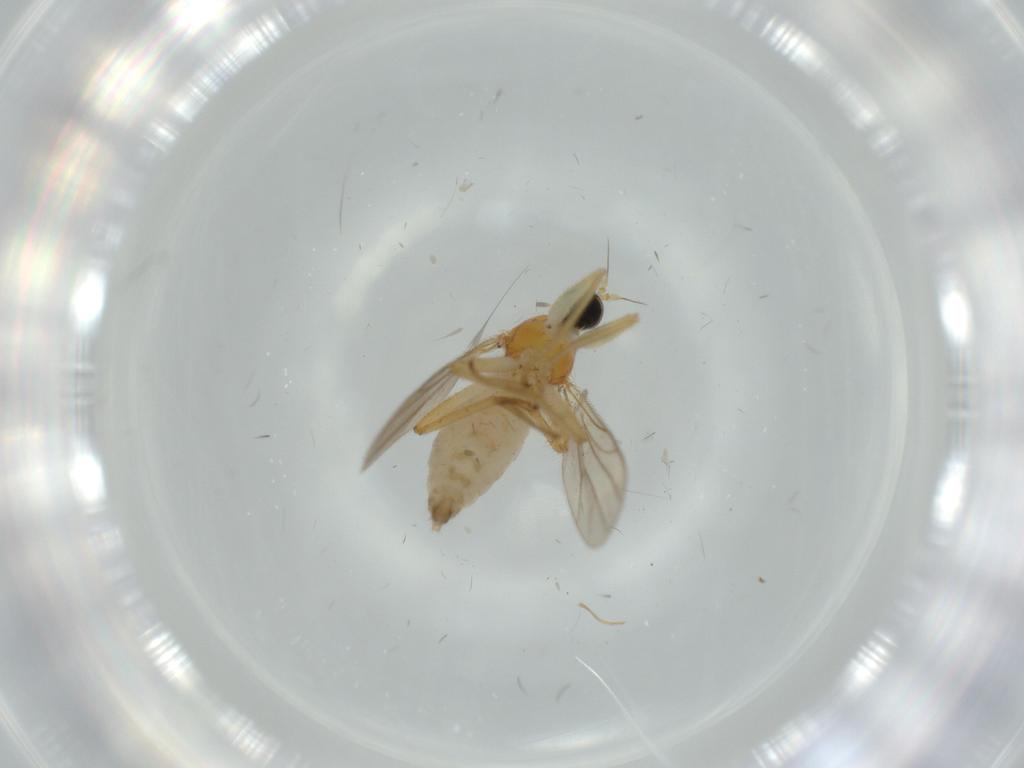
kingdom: Animalia
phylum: Arthropoda
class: Insecta
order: Diptera
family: Hybotidae
